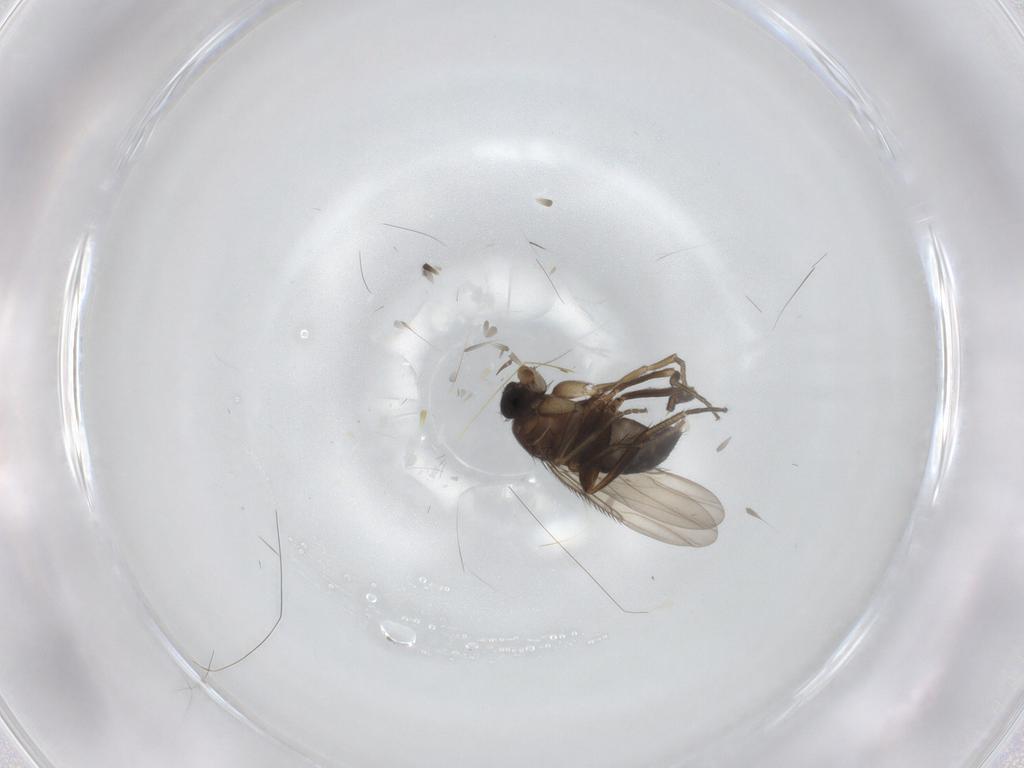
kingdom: Animalia
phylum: Arthropoda
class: Insecta
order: Diptera
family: Phoridae
